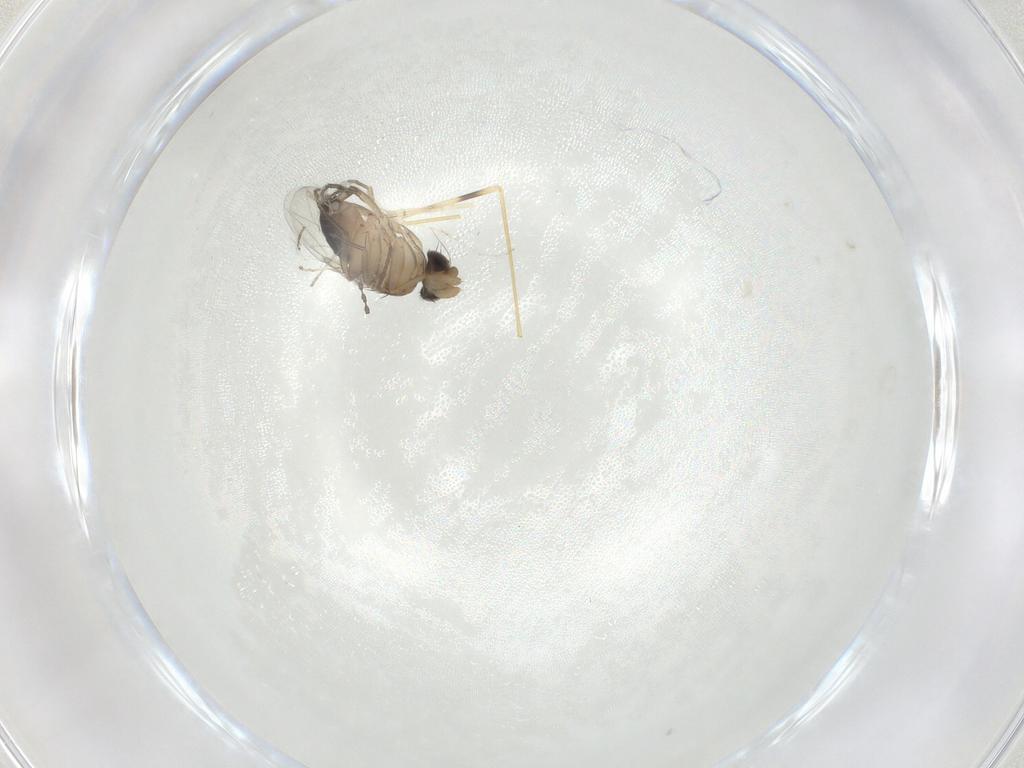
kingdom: Animalia
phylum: Arthropoda
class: Insecta
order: Diptera
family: Limoniidae
